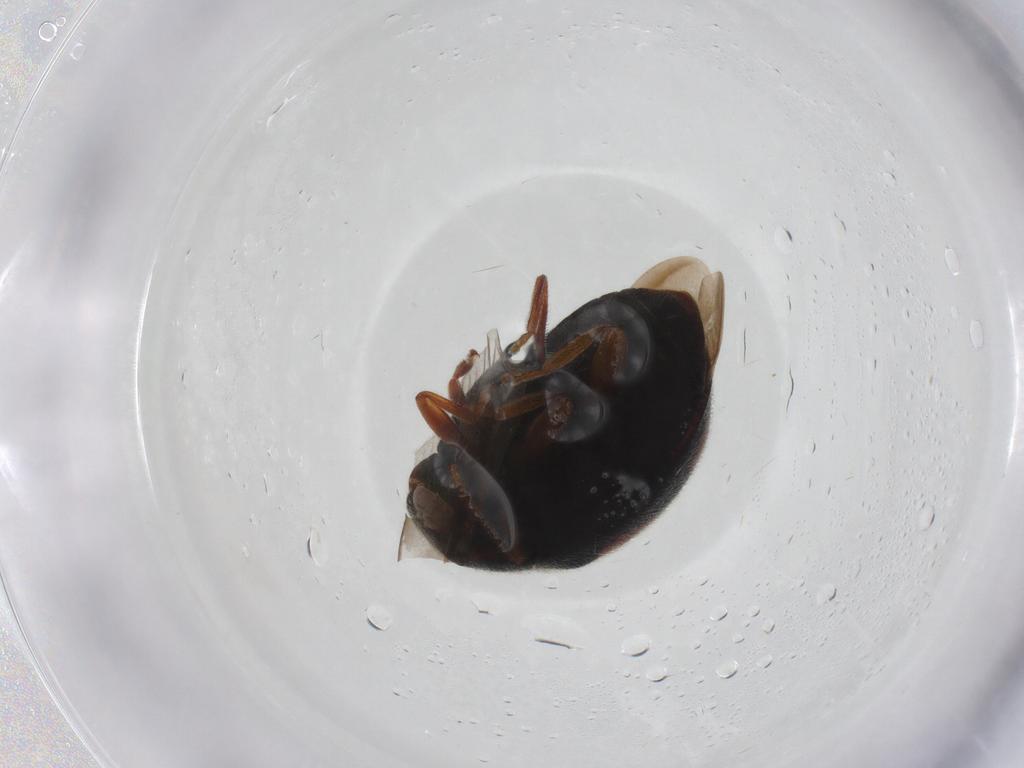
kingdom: Animalia
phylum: Arthropoda
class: Insecta
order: Coleoptera
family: Coccinellidae
